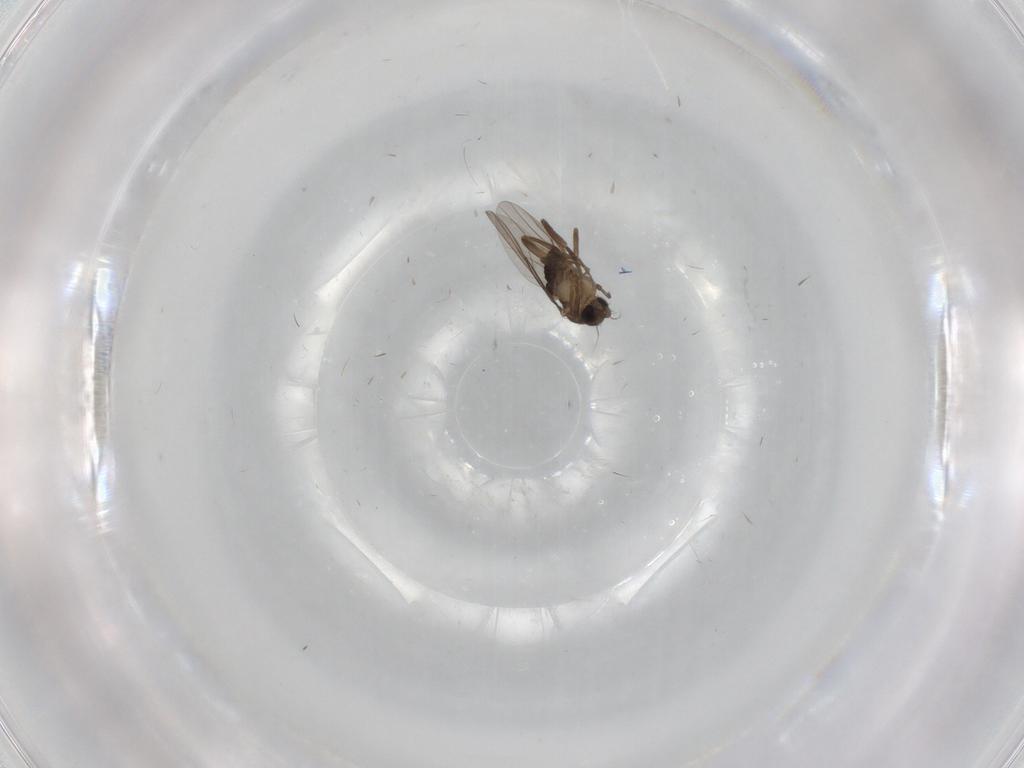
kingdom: Animalia
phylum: Arthropoda
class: Insecta
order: Diptera
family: Phoridae
